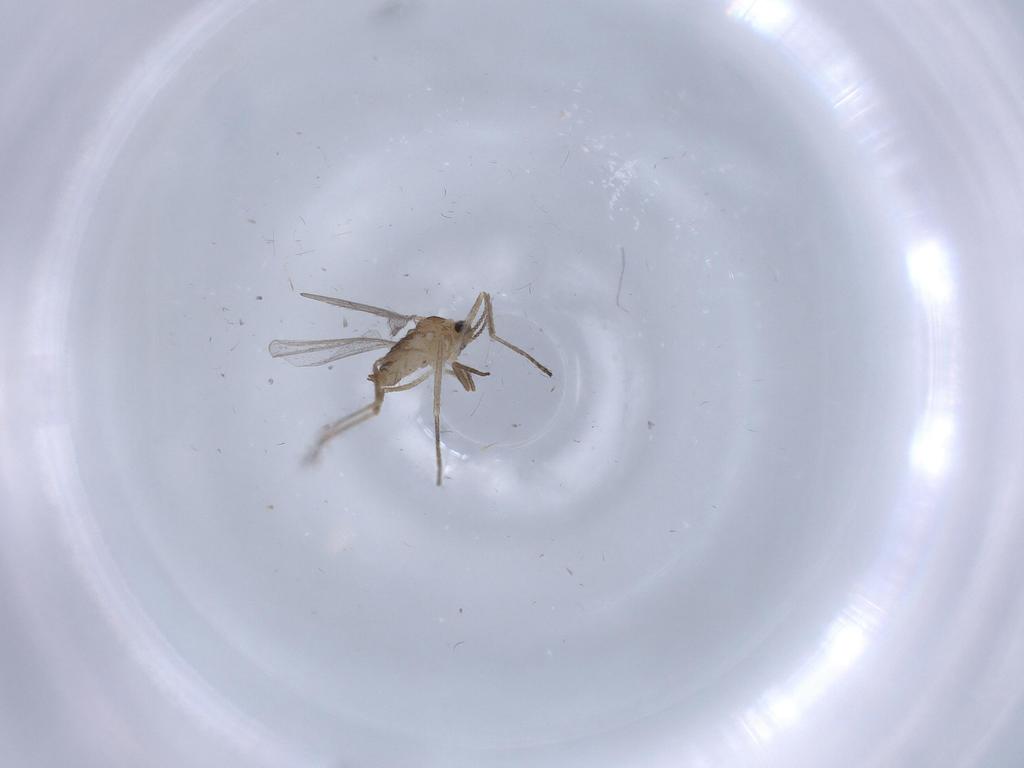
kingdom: Animalia
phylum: Arthropoda
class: Insecta
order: Diptera
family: Cecidomyiidae
